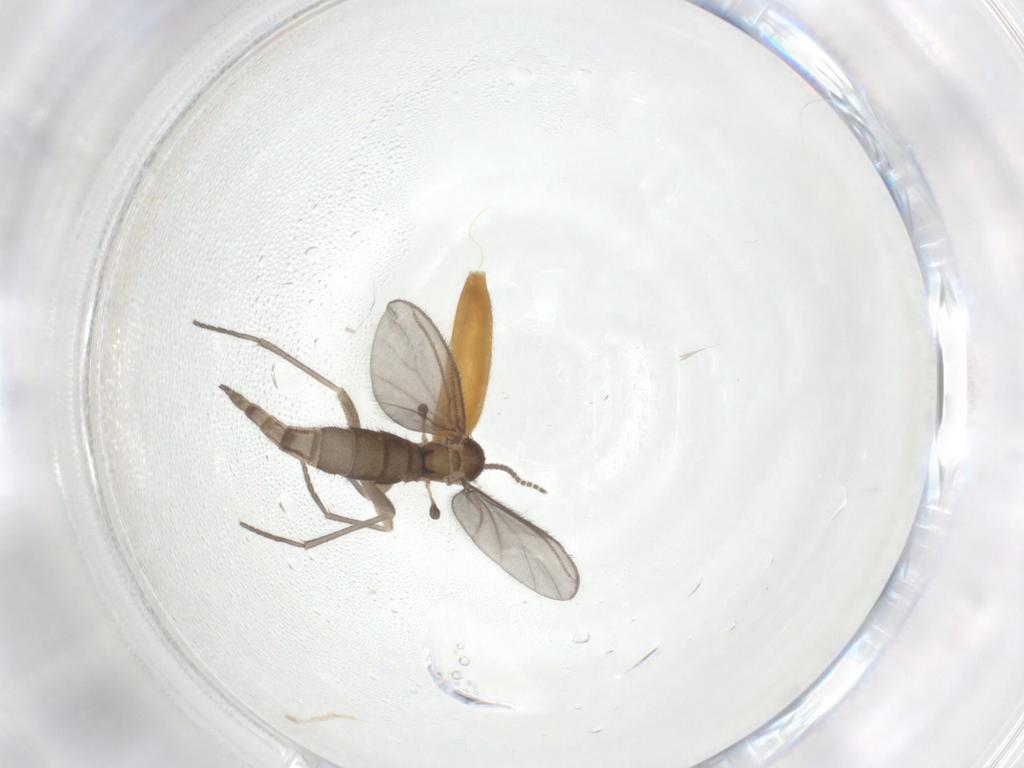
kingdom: Animalia
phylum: Arthropoda
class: Insecta
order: Diptera
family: Sciaridae
